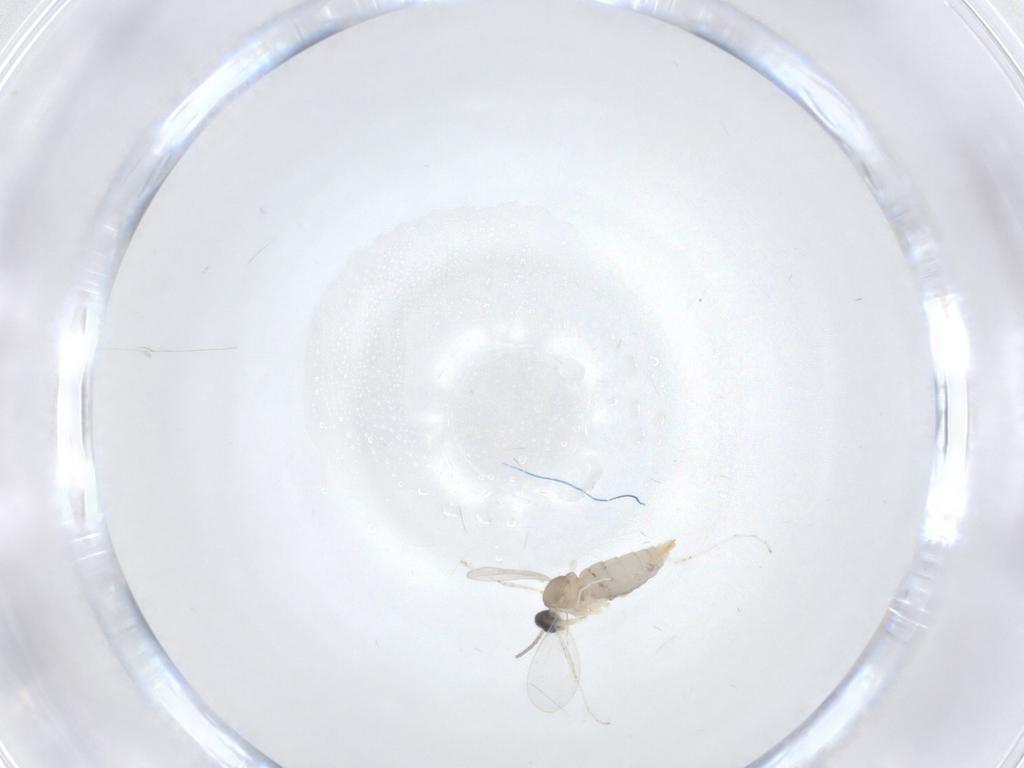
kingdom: Animalia
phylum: Arthropoda
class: Insecta
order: Diptera
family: Cecidomyiidae
